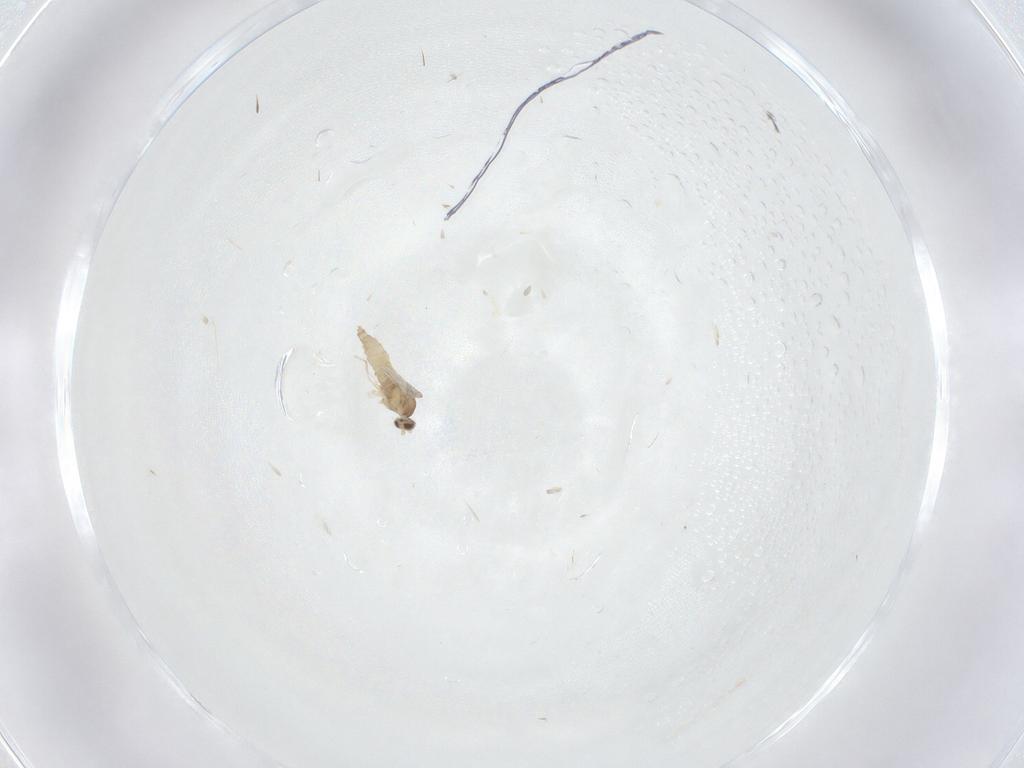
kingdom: Animalia
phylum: Arthropoda
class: Insecta
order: Diptera
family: Cecidomyiidae
